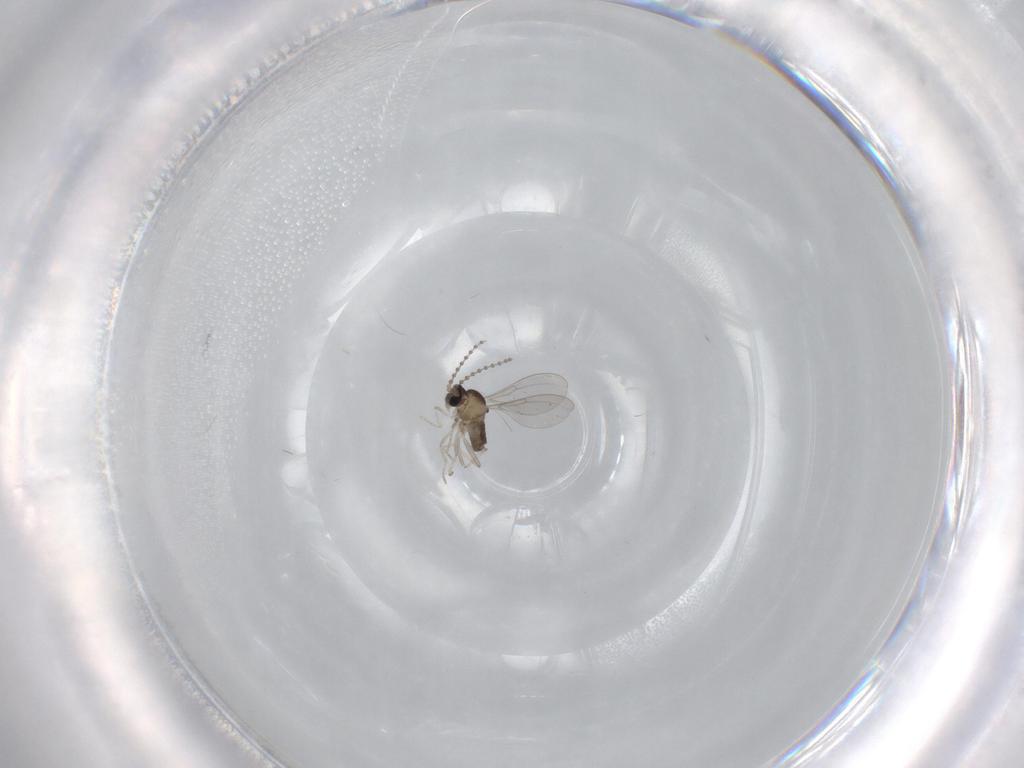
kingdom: Animalia
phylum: Arthropoda
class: Insecta
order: Diptera
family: Cecidomyiidae
